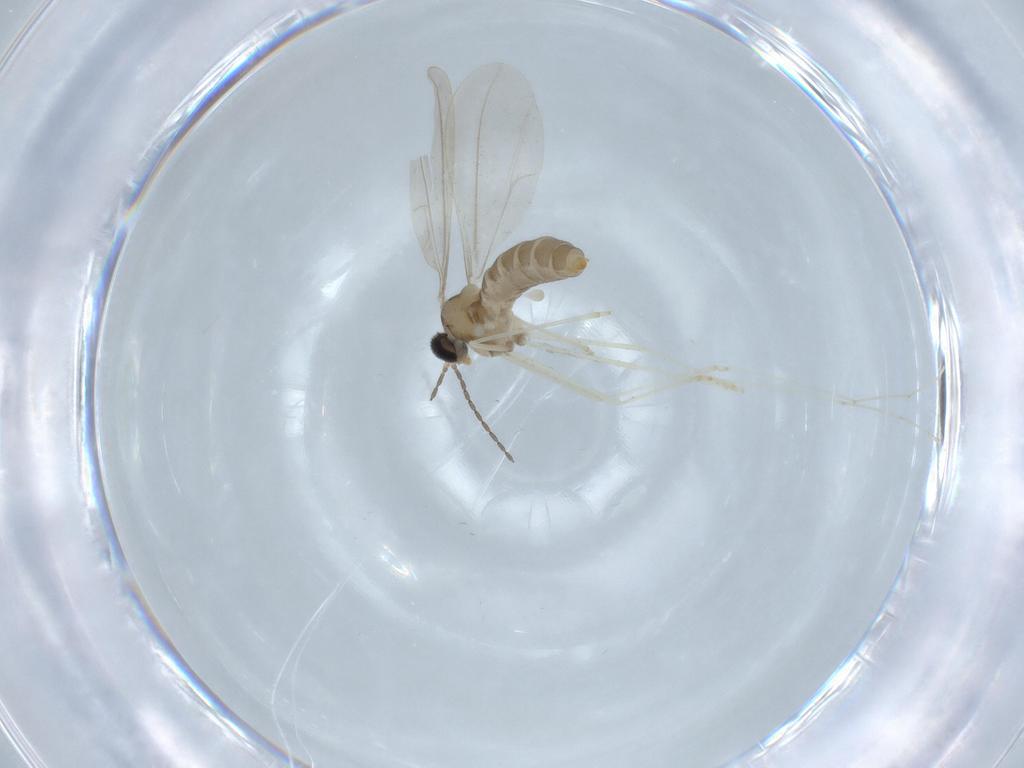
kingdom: Animalia
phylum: Arthropoda
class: Insecta
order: Diptera
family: Cecidomyiidae
